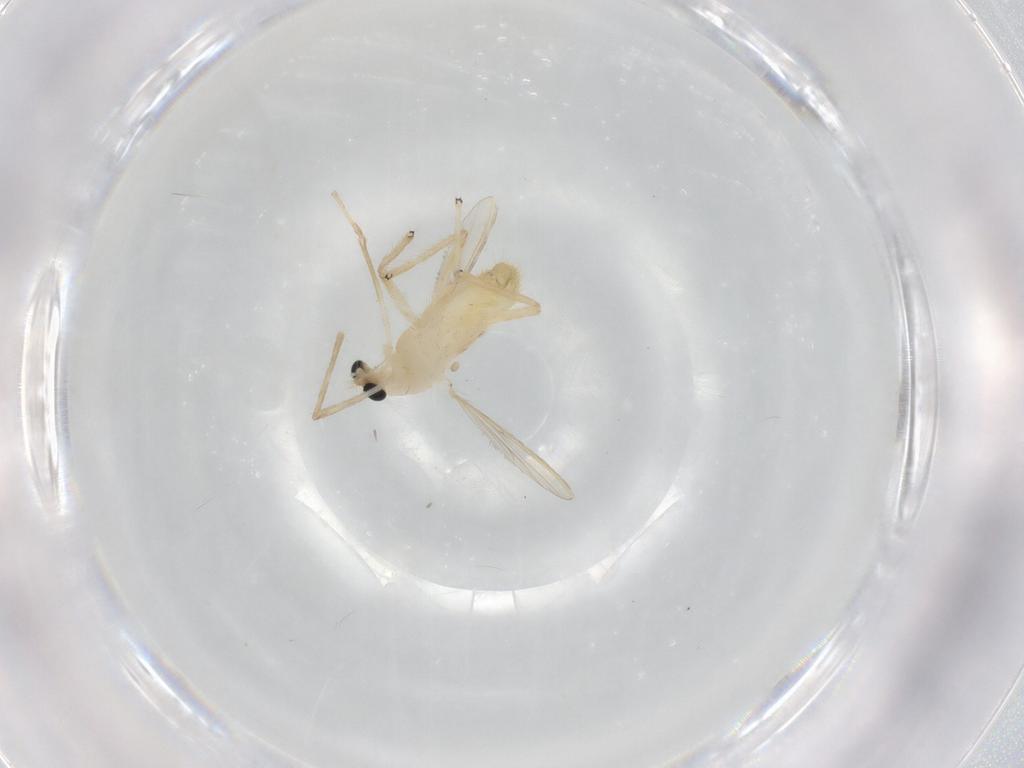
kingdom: Animalia
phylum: Arthropoda
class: Insecta
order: Diptera
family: Chironomidae
